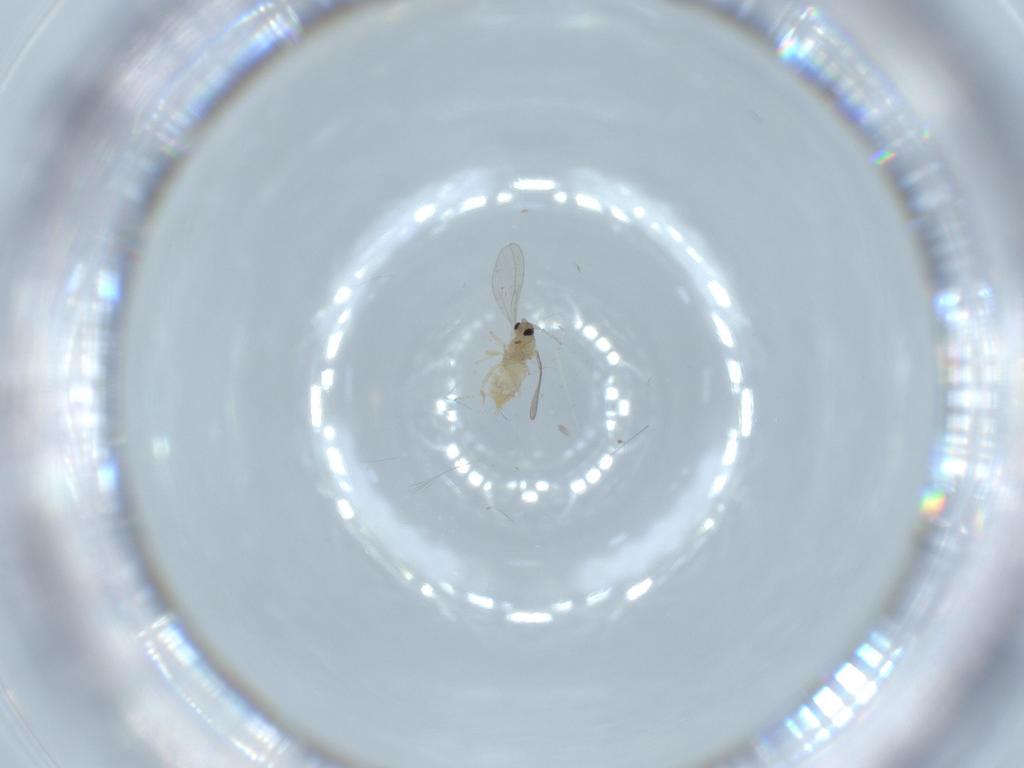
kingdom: Animalia
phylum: Arthropoda
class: Insecta
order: Diptera
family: Cecidomyiidae
